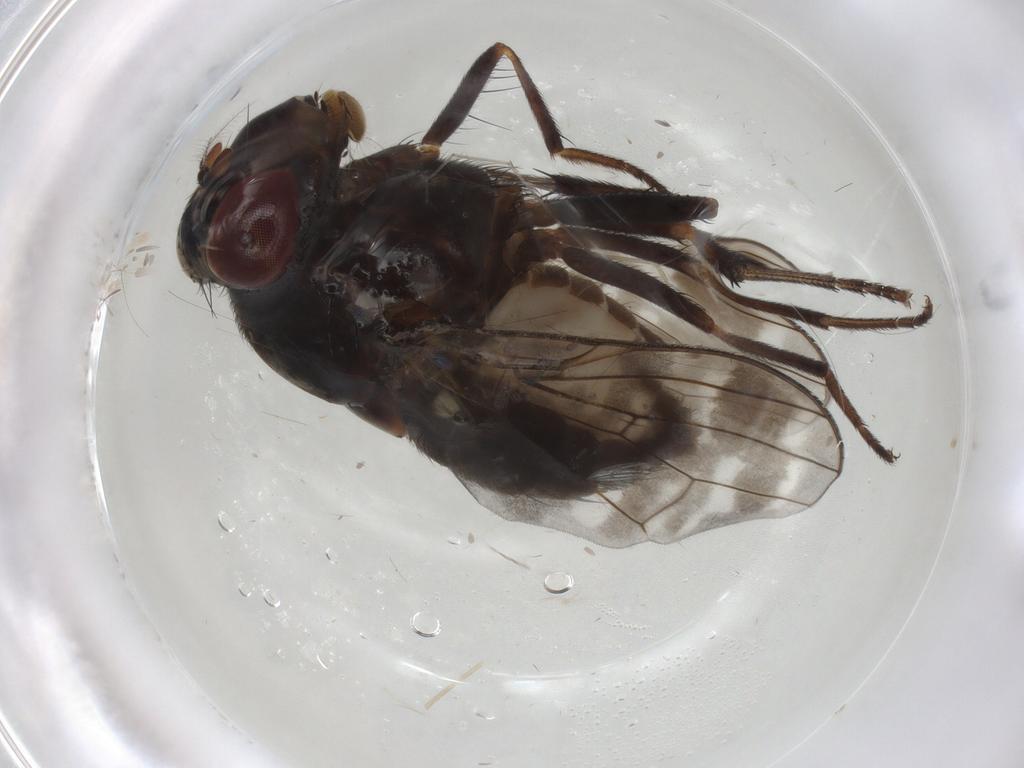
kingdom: Animalia
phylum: Arthropoda
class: Insecta
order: Diptera
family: Cecidomyiidae
